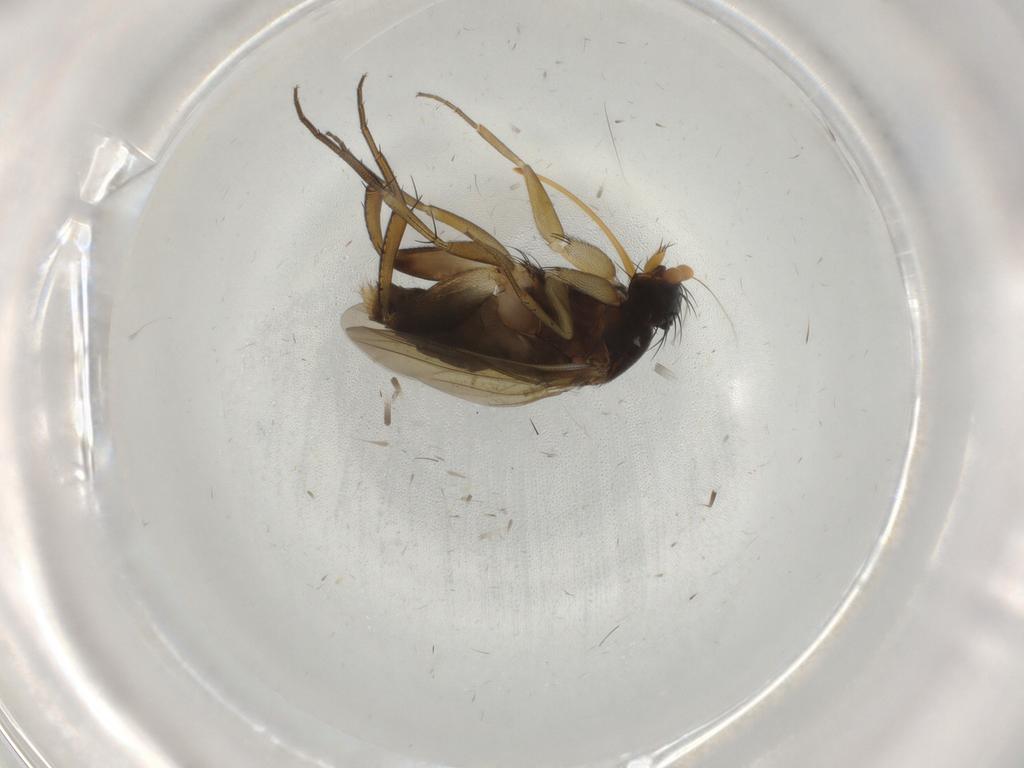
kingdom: Animalia
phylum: Arthropoda
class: Insecta
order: Diptera
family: Phoridae
